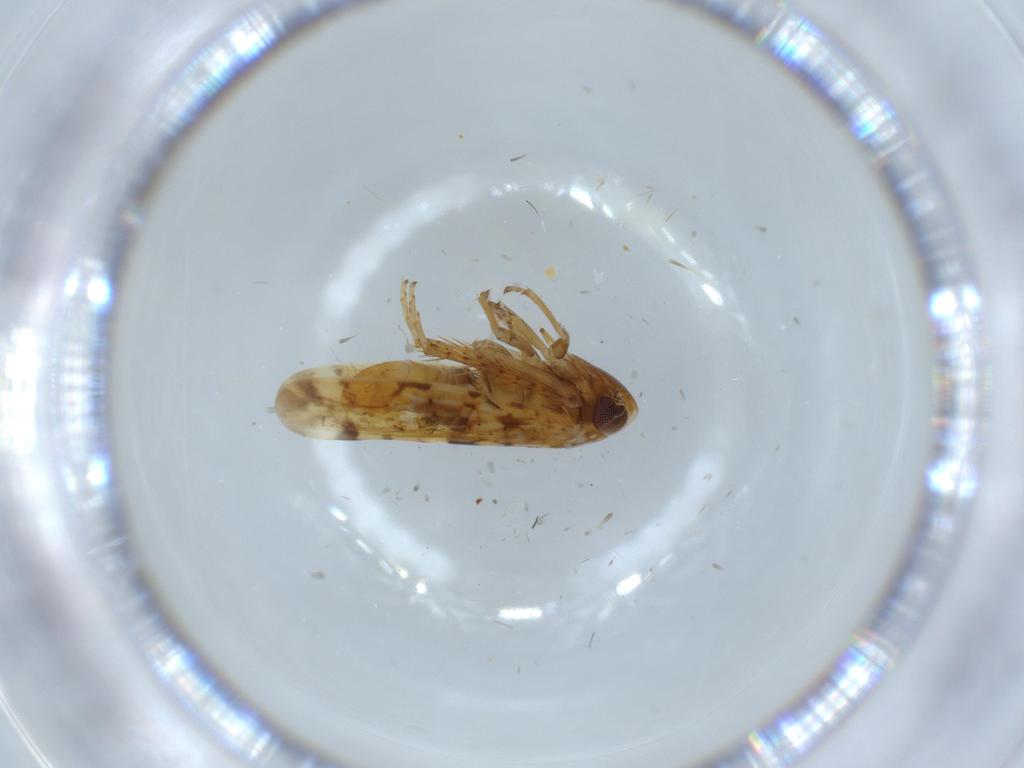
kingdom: Animalia
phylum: Arthropoda
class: Insecta
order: Hemiptera
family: Cicadellidae
